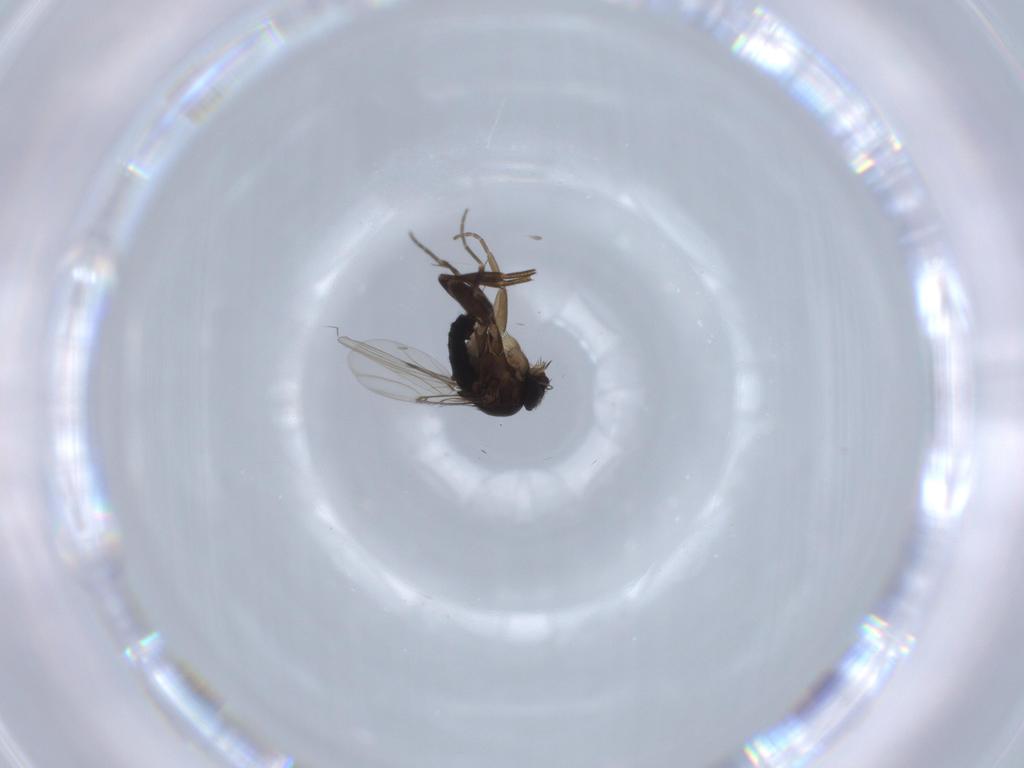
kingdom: Animalia
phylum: Arthropoda
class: Insecta
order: Diptera
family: Phoridae
